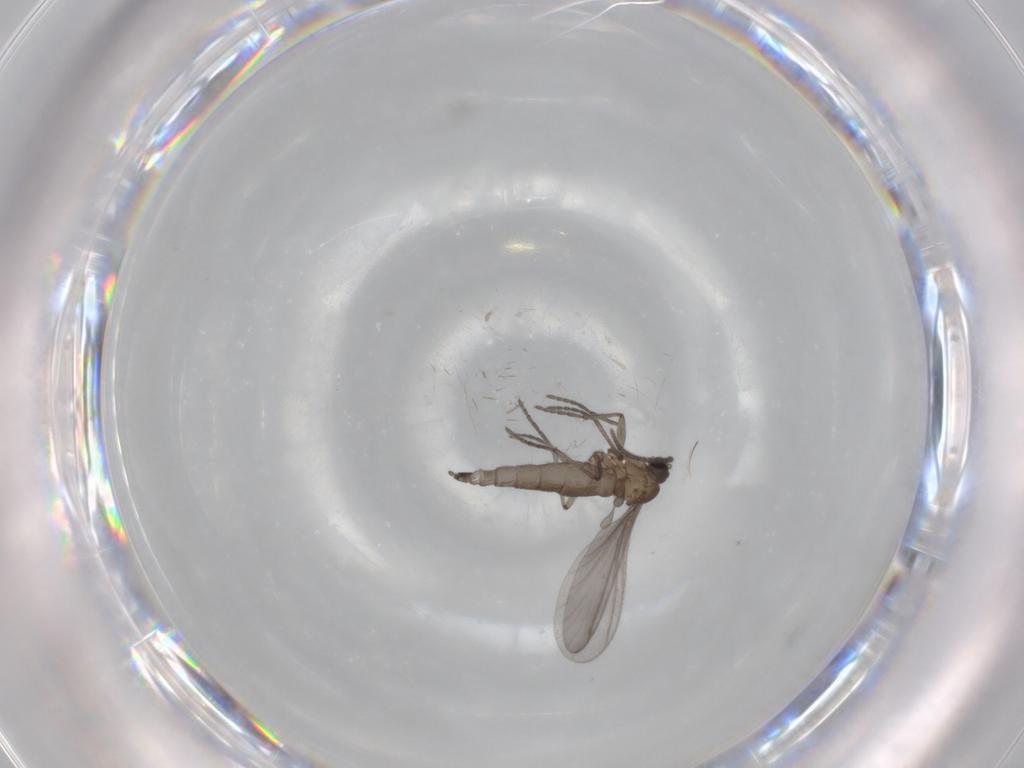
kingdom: Animalia
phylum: Arthropoda
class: Insecta
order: Diptera
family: Sciaridae
